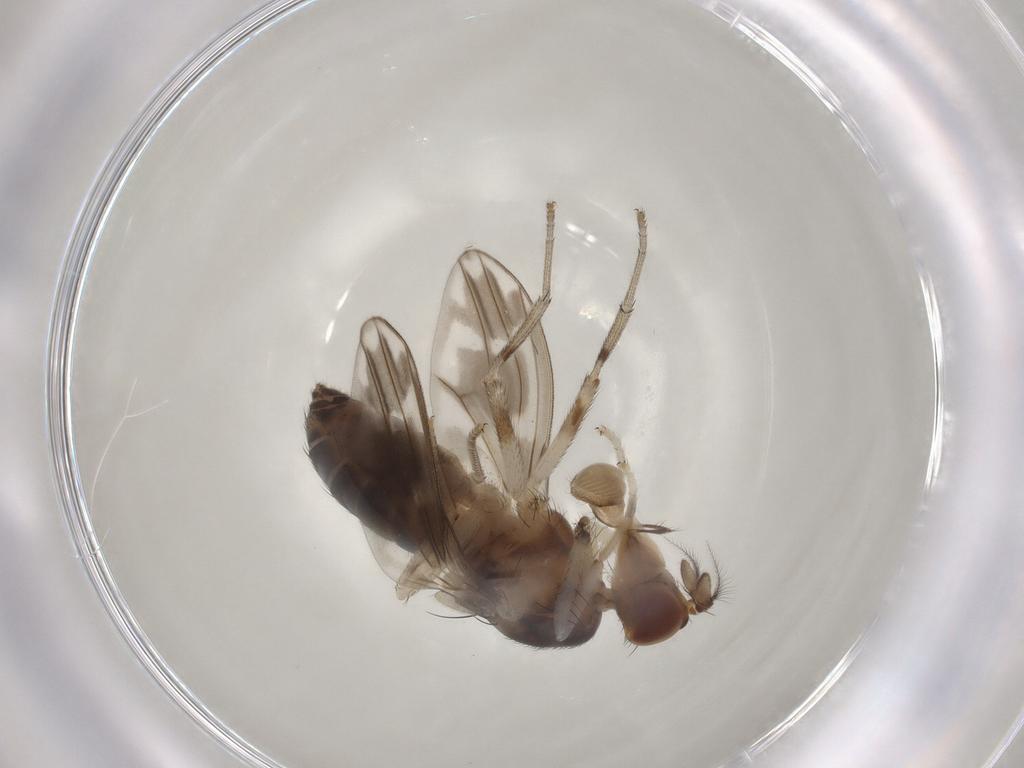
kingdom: Animalia
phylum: Arthropoda
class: Insecta
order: Diptera
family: Lauxaniidae
